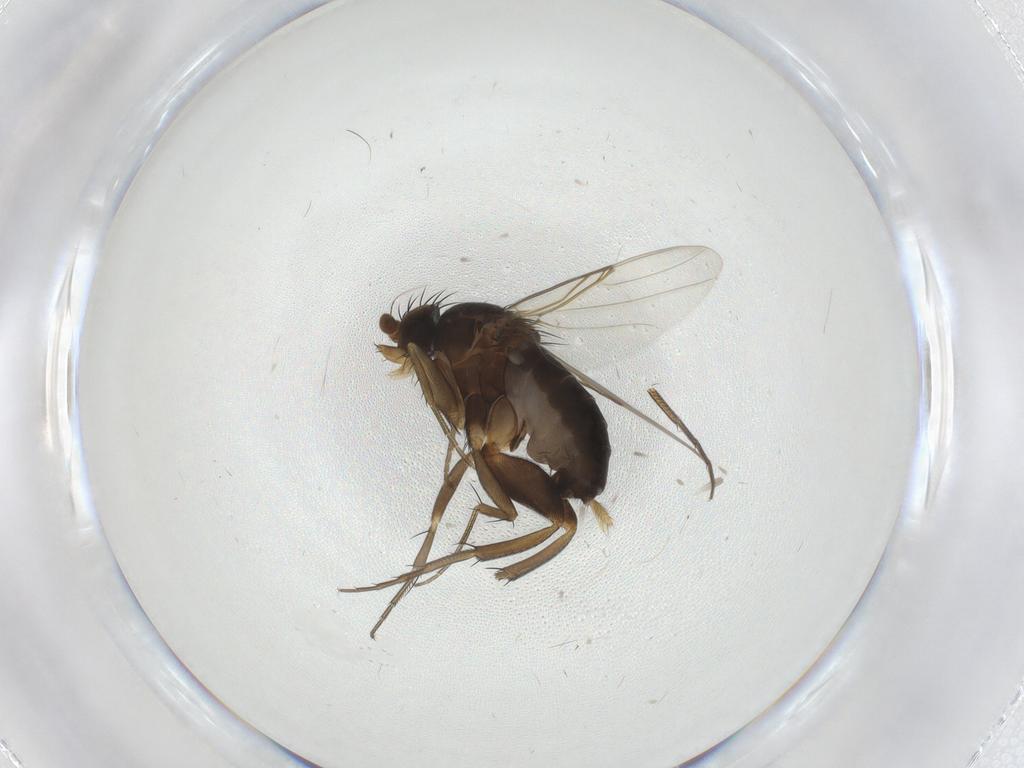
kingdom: Animalia
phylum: Arthropoda
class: Insecta
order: Diptera
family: Phoridae
